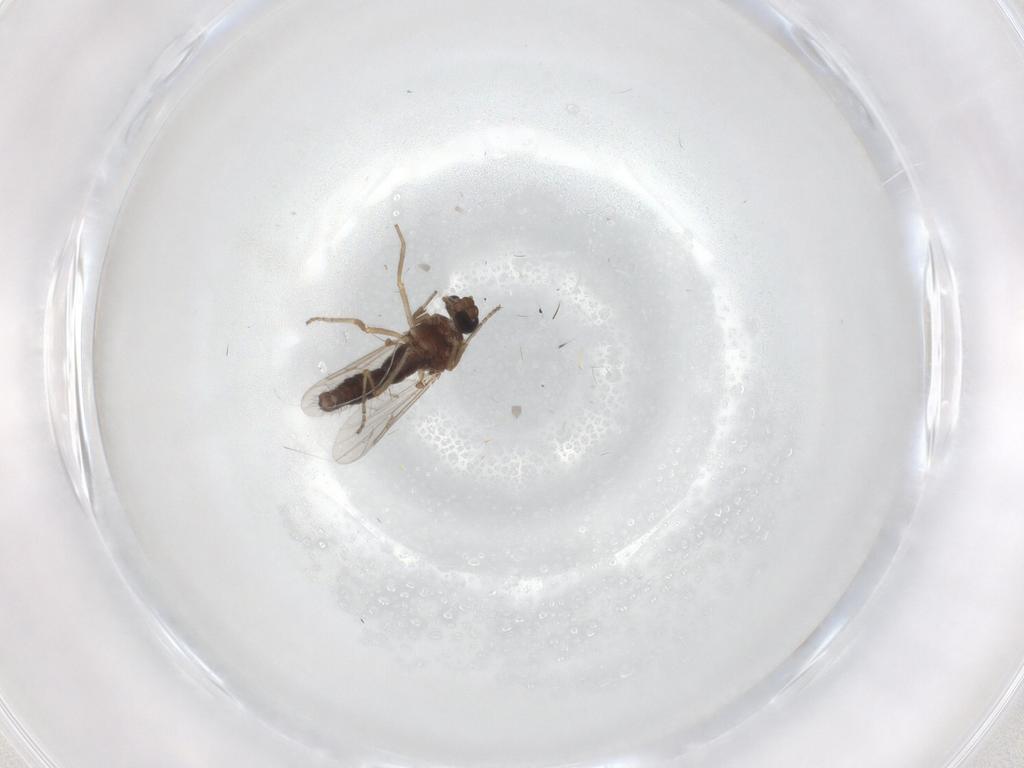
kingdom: Animalia
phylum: Arthropoda
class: Insecta
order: Diptera
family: Ceratopogonidae
